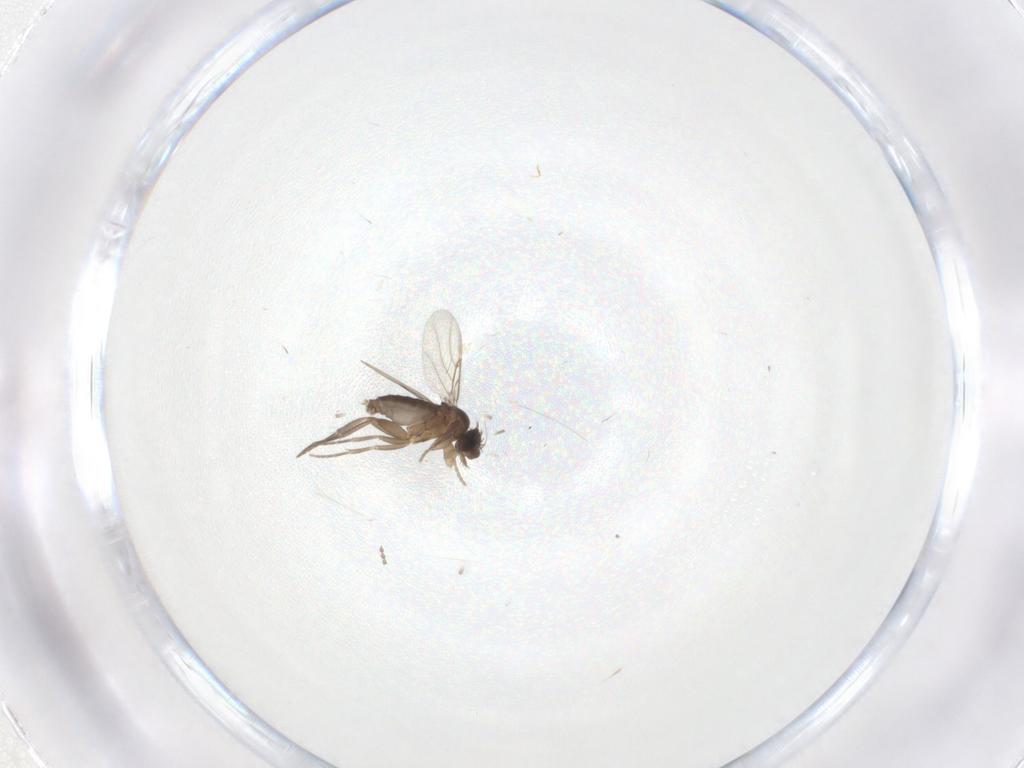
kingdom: Animalia
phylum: Arthropoda
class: Insecta
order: Diptera
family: Cecidomyiidae
